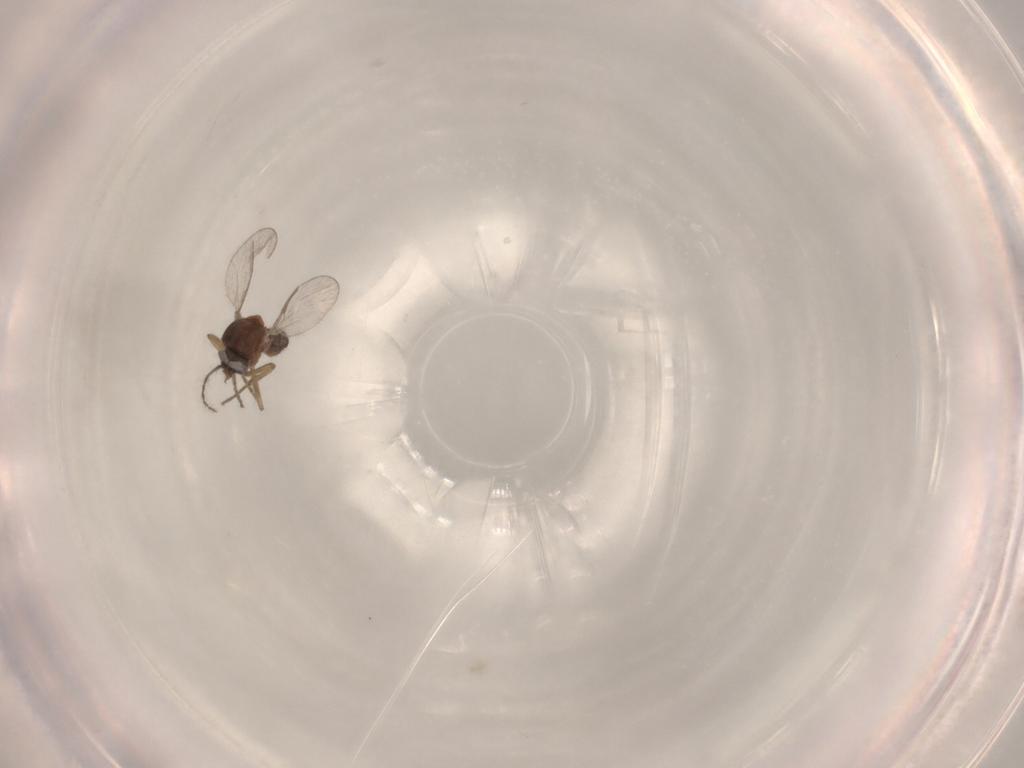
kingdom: Animalia
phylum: Arthropoda
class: Insecta
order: Diptera
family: Ceratopogonidae
